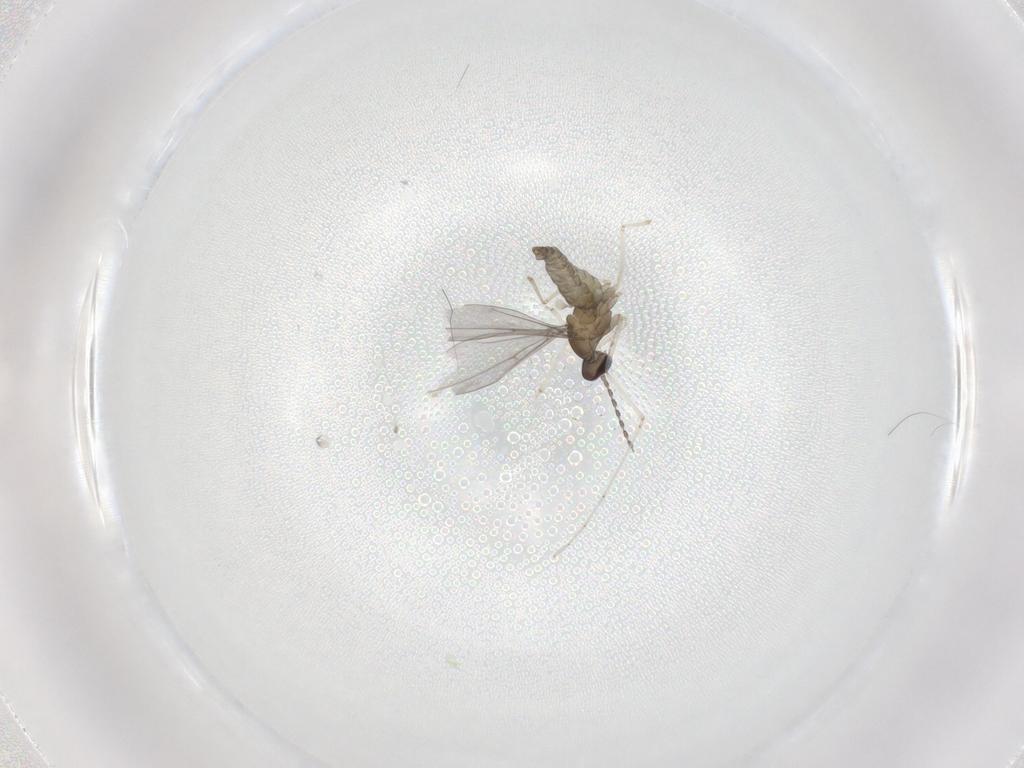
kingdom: Animalia
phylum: Arthropoda
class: Insecta
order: Diptera
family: Cecidomyiidae
